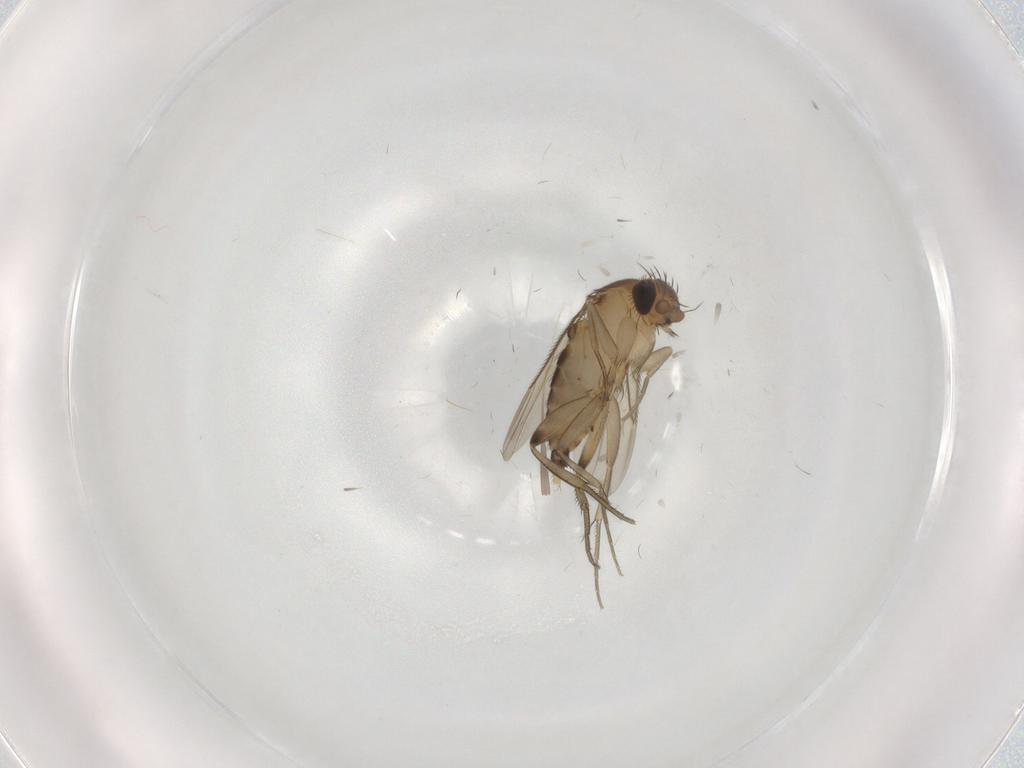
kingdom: Animalia
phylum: Arthropoda
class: Insecta
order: Diptera
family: Phoridae
